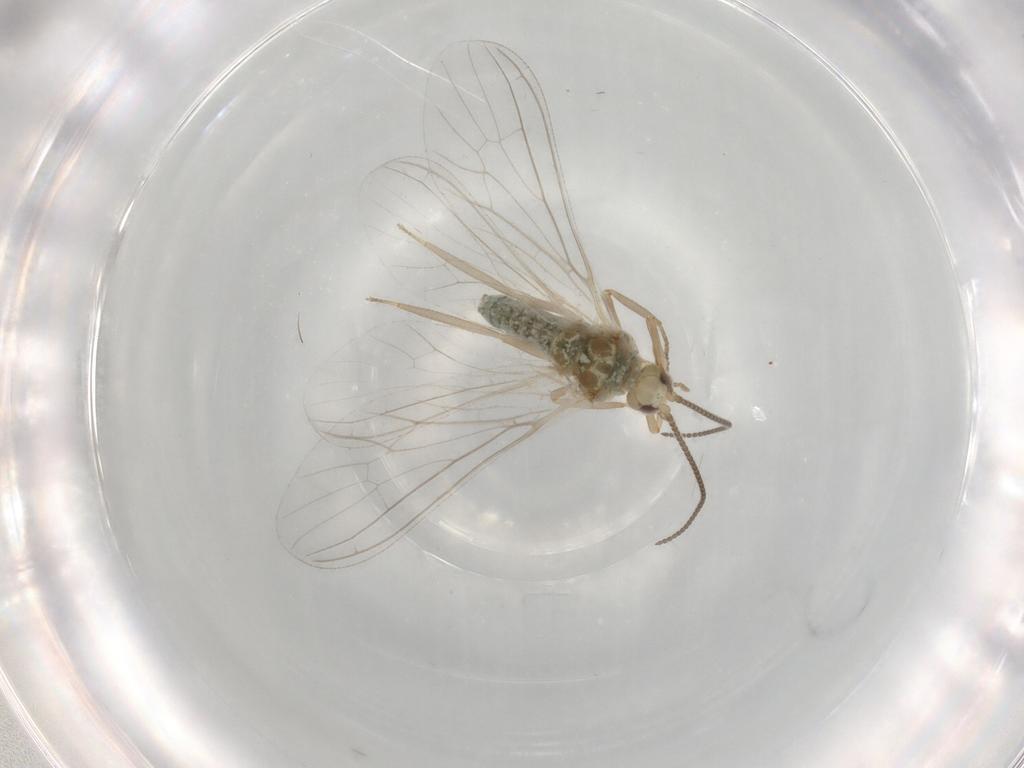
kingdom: Animalia
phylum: Arthropoda
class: Insecta
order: Neuroptera
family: Coniopterygidae
